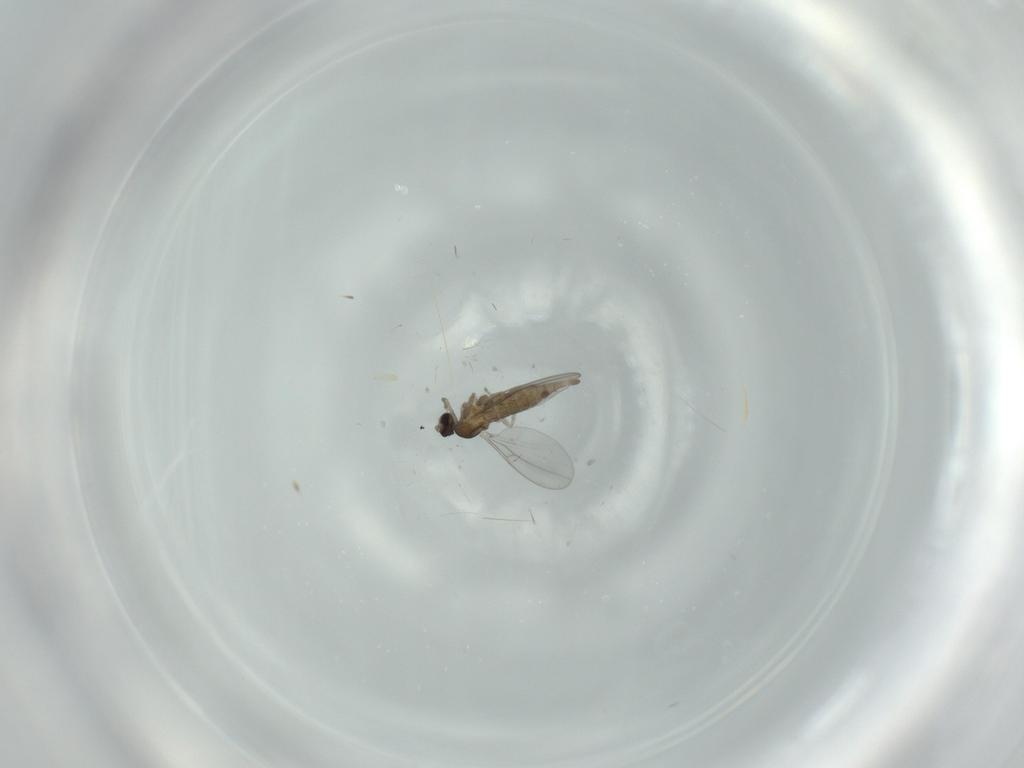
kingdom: Animalia
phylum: Arthropoda
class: Insecta
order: Diptera
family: Cecidomyiidae
